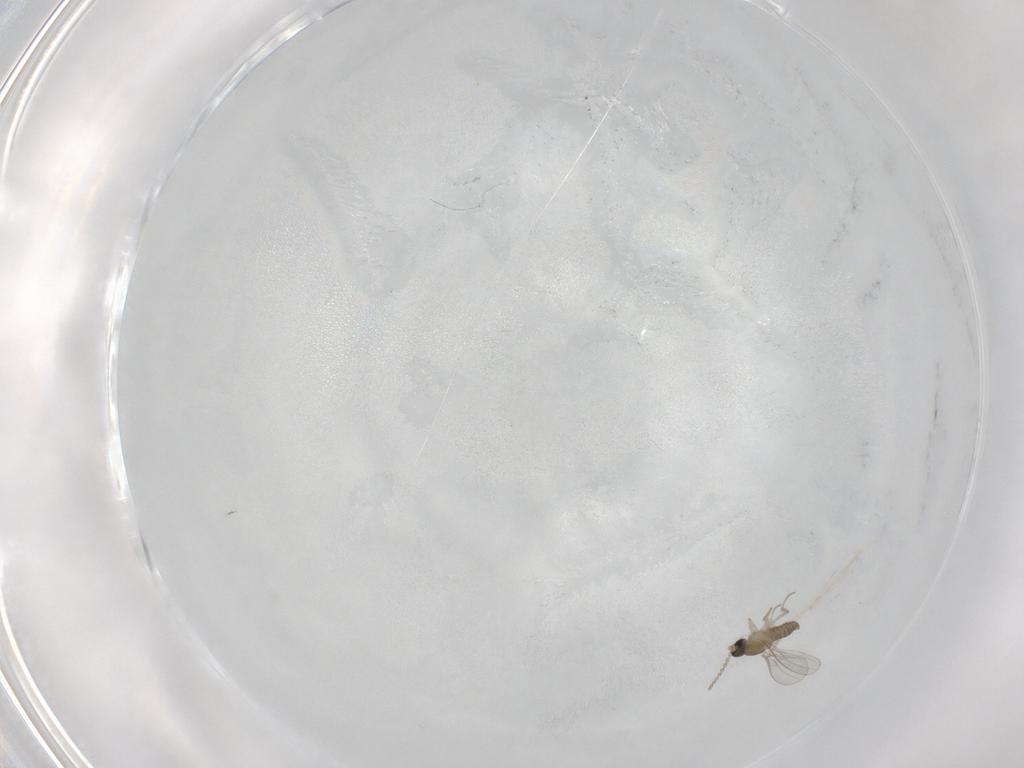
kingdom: Animalia
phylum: Arthropoda
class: Insecta
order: Diptera
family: Cecidomyiidae
